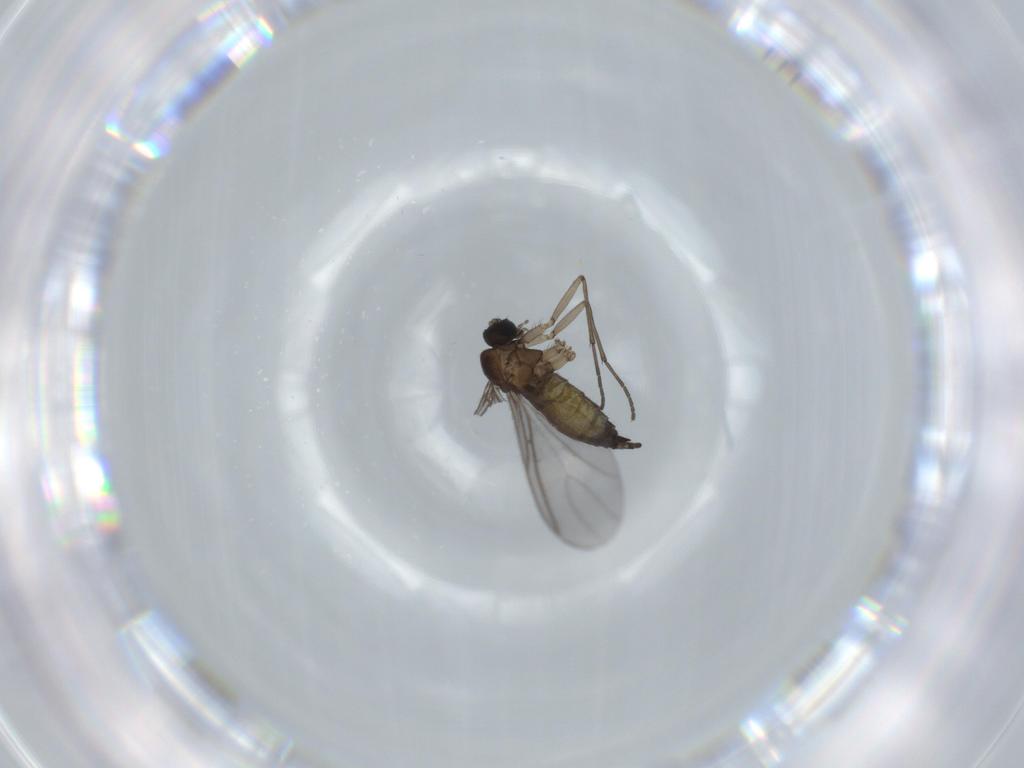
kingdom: Animalia
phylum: Arthropoda
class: Insecta
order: Diptera
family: Sciaridae
